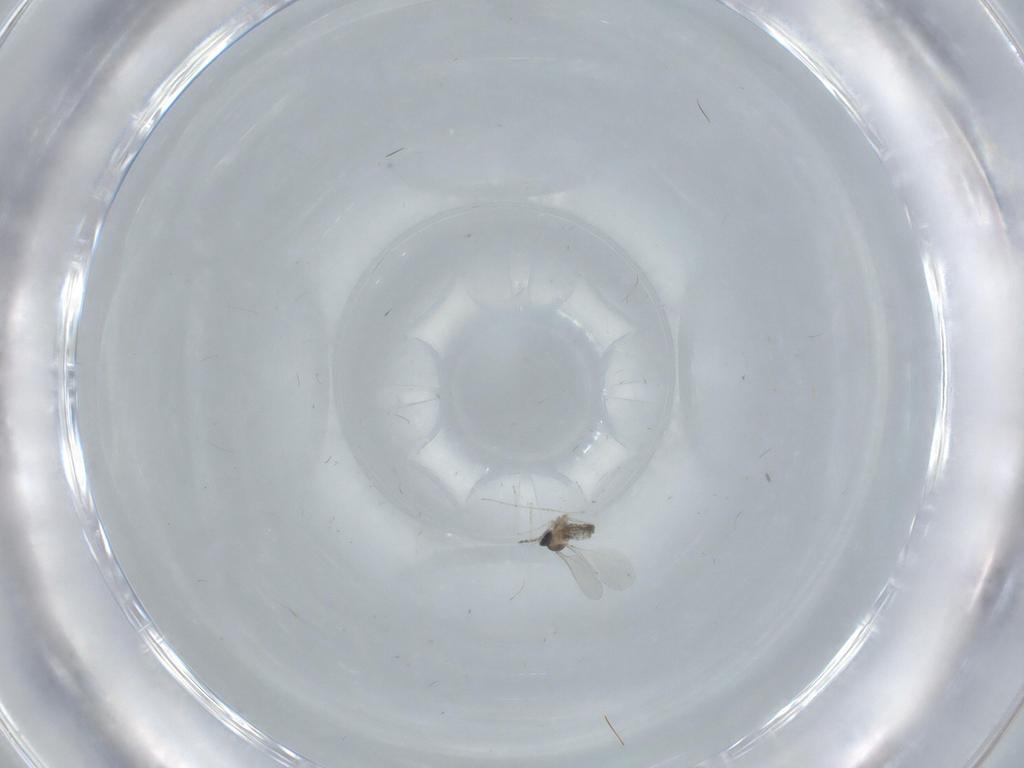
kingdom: Animalia
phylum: Arthropoda
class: Insecta
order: Diptera
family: Cecidomyiidae
